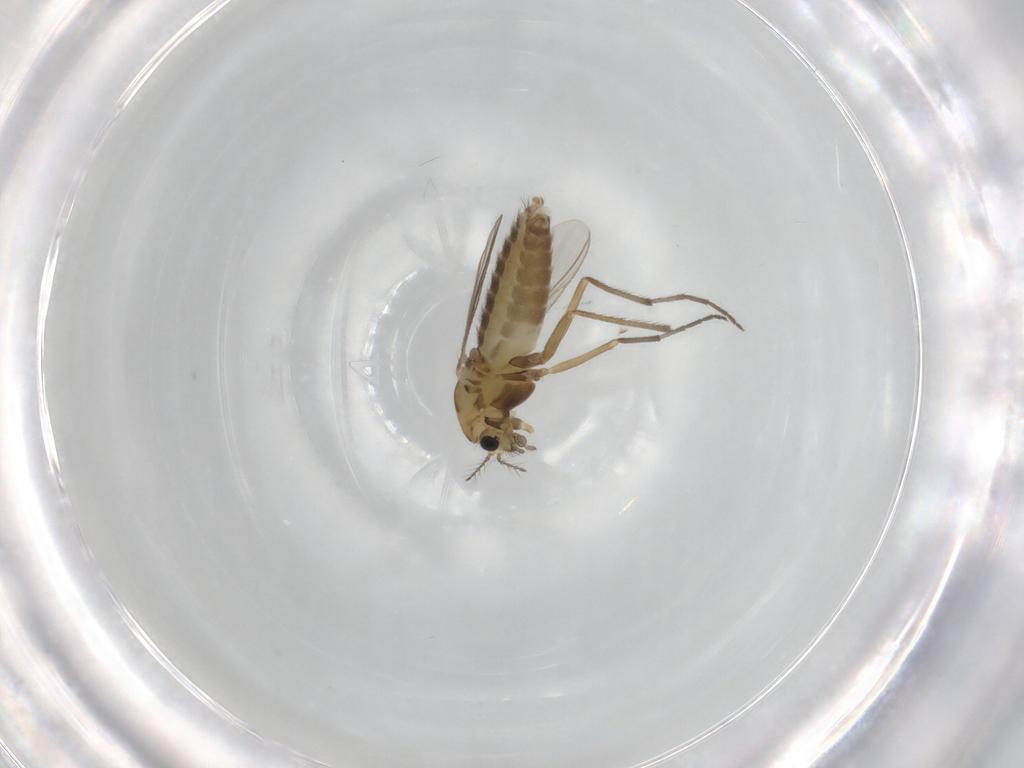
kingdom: Animalia
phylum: Arthropoda
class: Insecta
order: Diptera
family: Chironomidae
